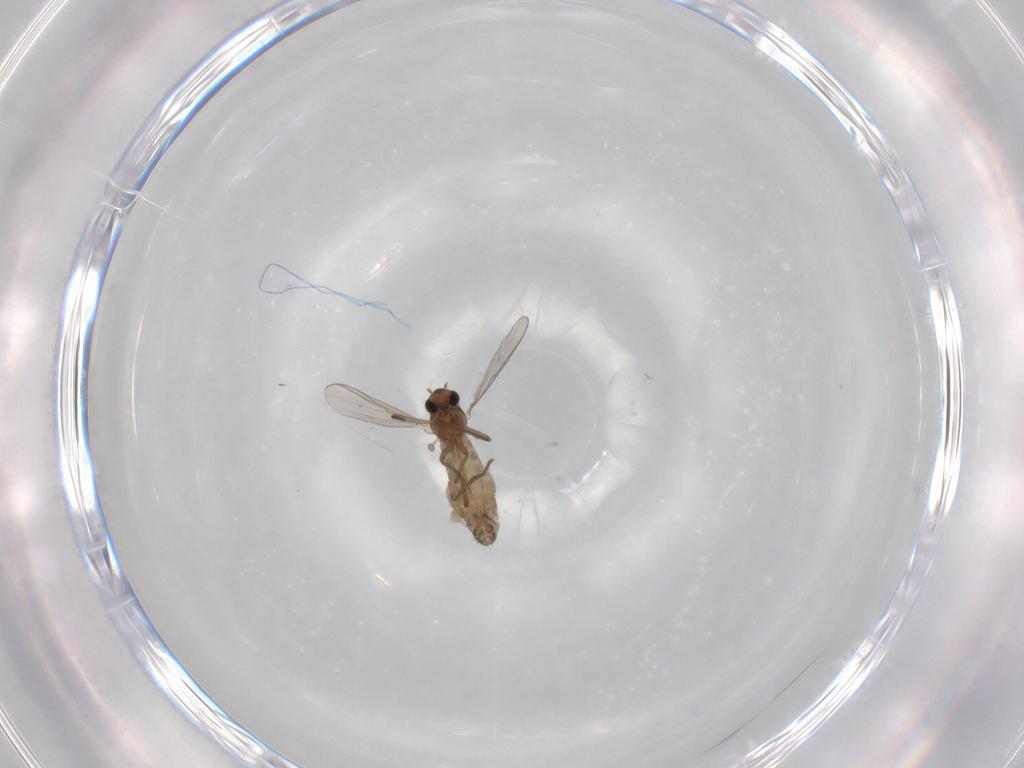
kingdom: Animalia
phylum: Arthropoda
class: Insecta
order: Diptera
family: Chironomidae
